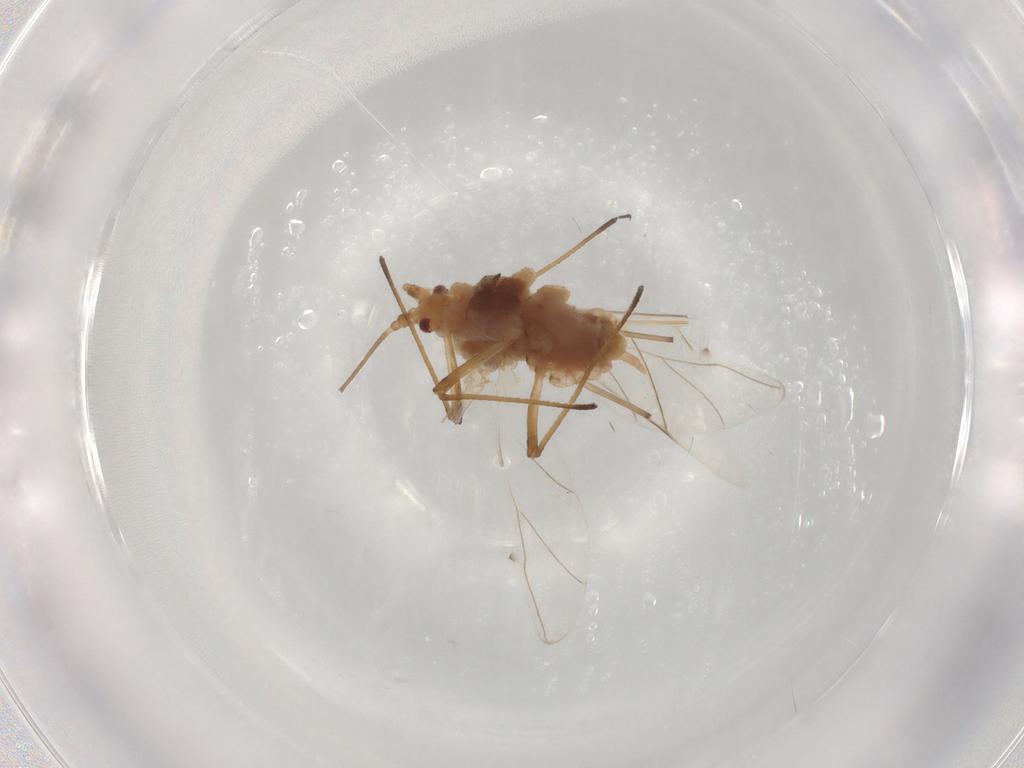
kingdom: Animalia
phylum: Arthropoda
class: Insecta
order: Hemiptera
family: Aphididae
